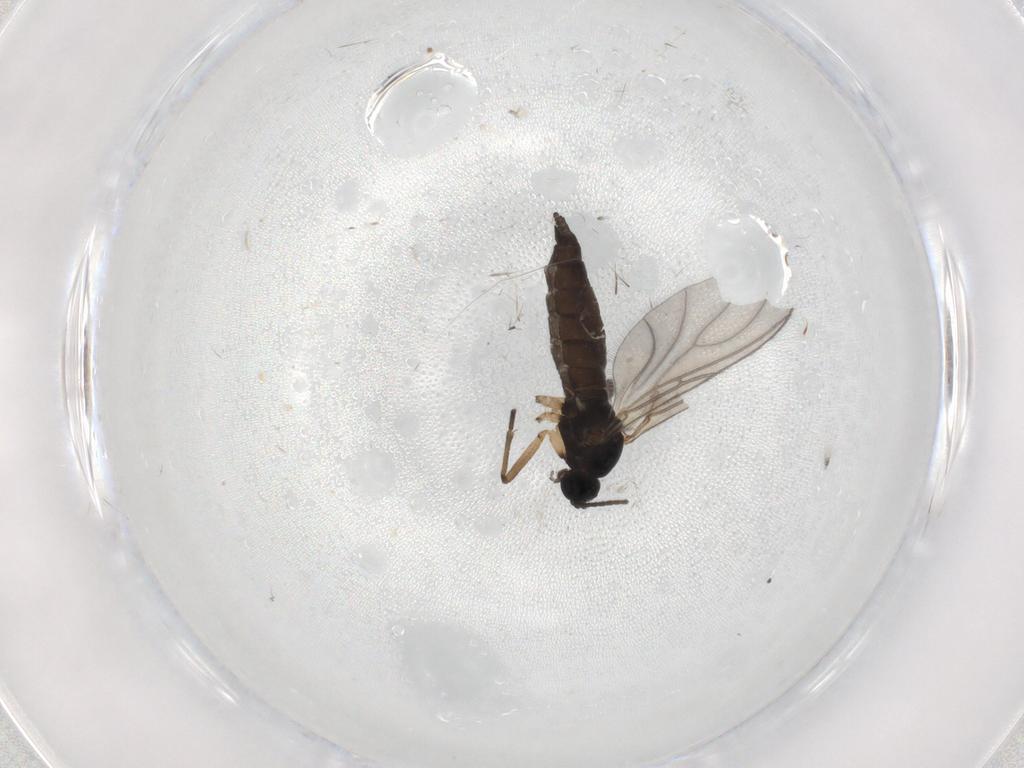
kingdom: Animalia
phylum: Arthropoda
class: Insecta
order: Diptera
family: Sciaridae
